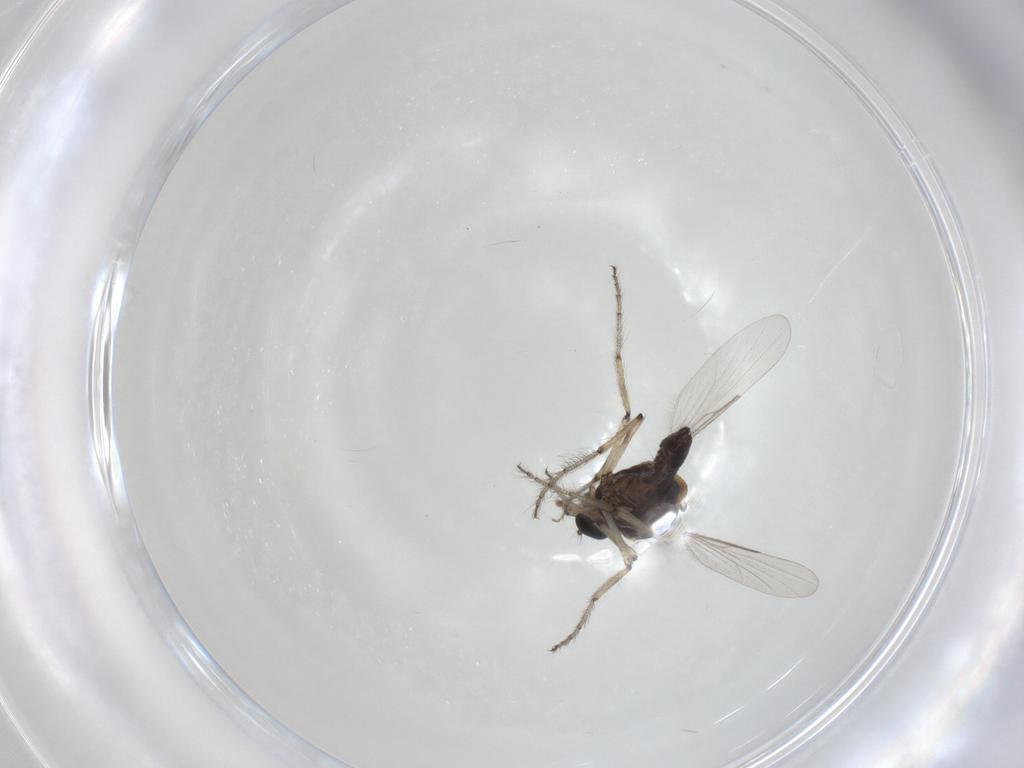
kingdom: Animalia
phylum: Arthropoda
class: Insecta
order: Diptera
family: Ceratopogonidae
